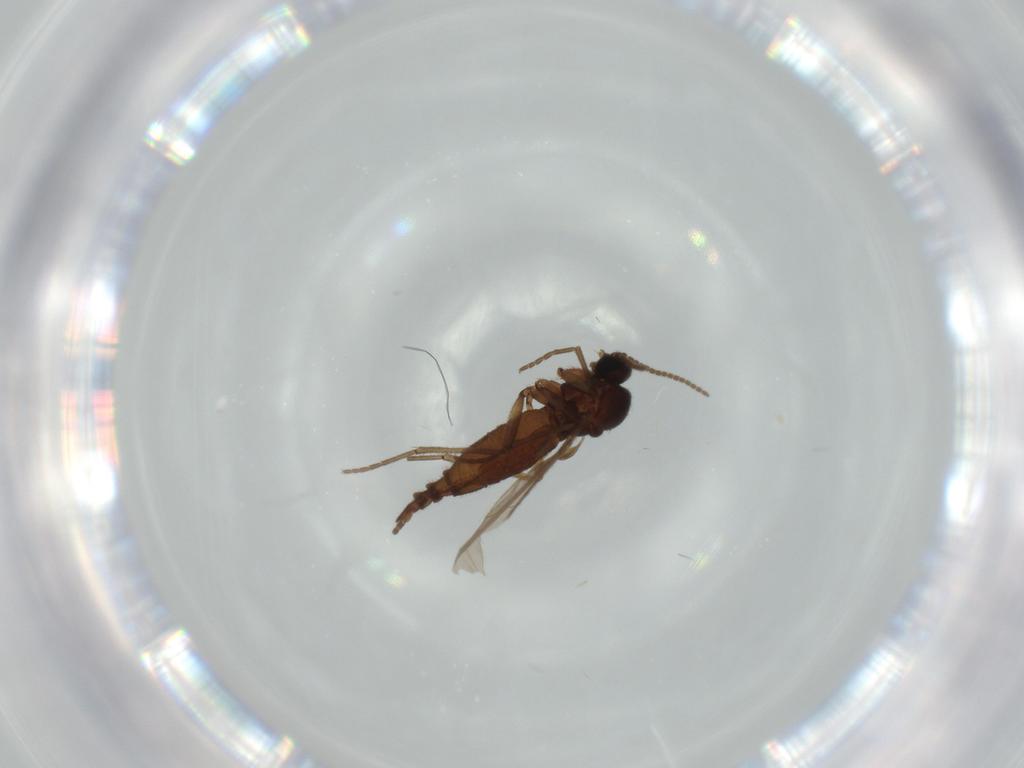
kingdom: Animalia
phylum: Arthropoda
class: Insecta
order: Diptera
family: Sciaridae
